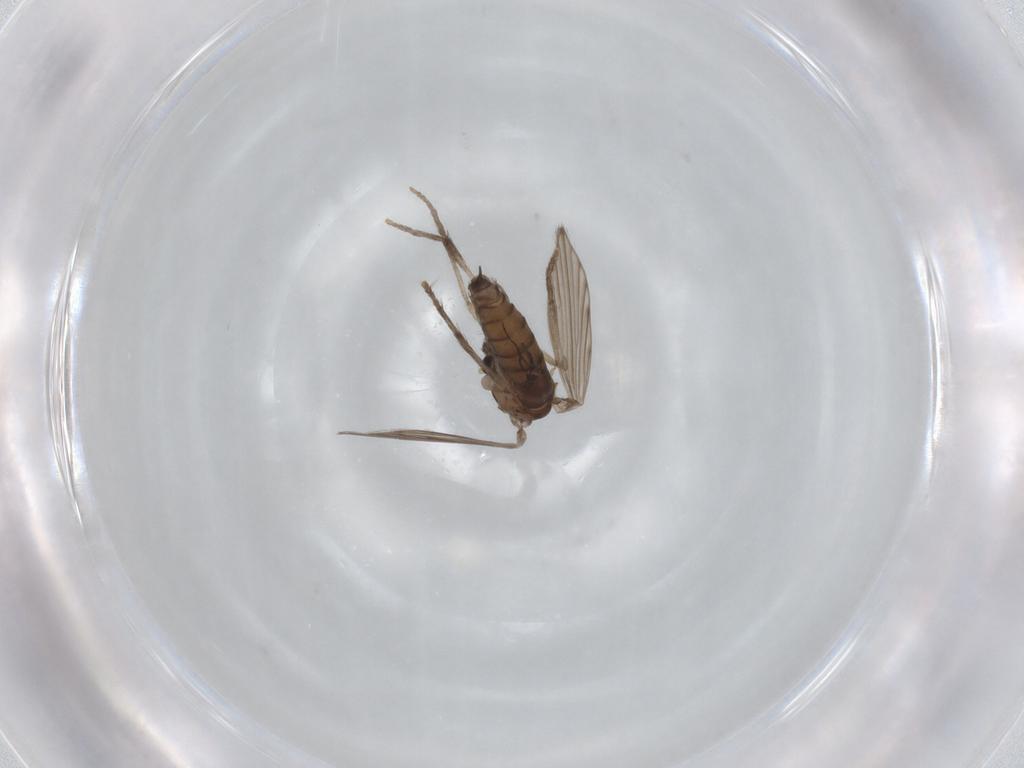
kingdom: Animalia
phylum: Arthropoda
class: Insecta
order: Diptera
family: Psychodidae
